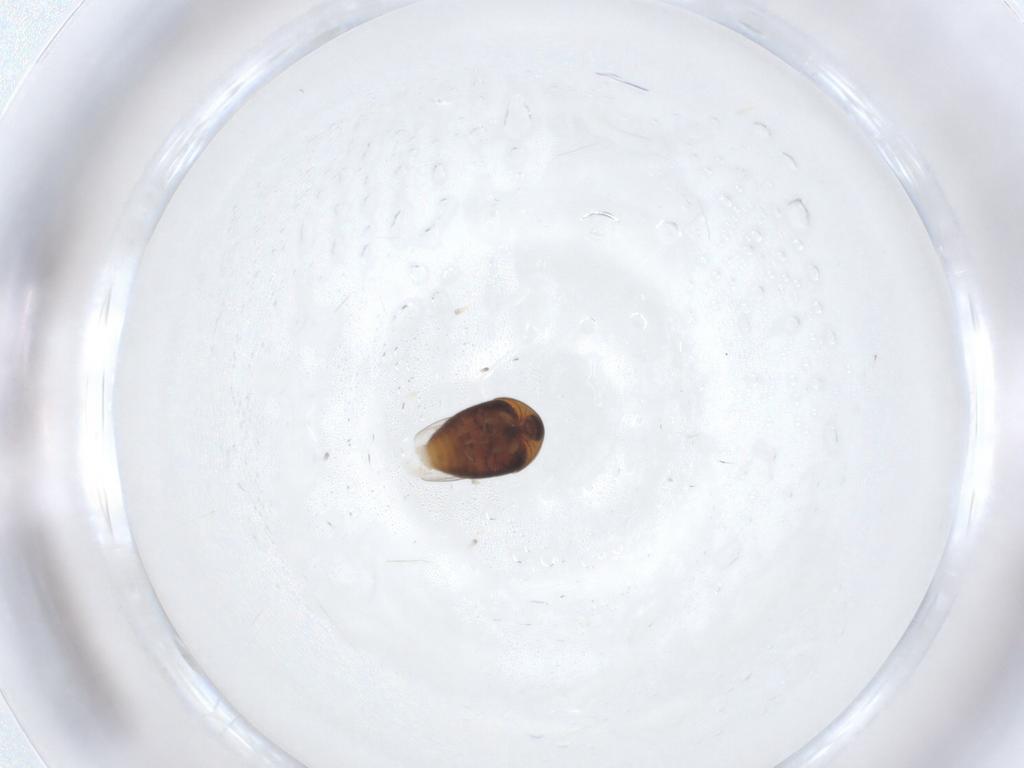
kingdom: Animalia
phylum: Arthropoda
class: Insecta
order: Coleoptera
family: Corylophidae
